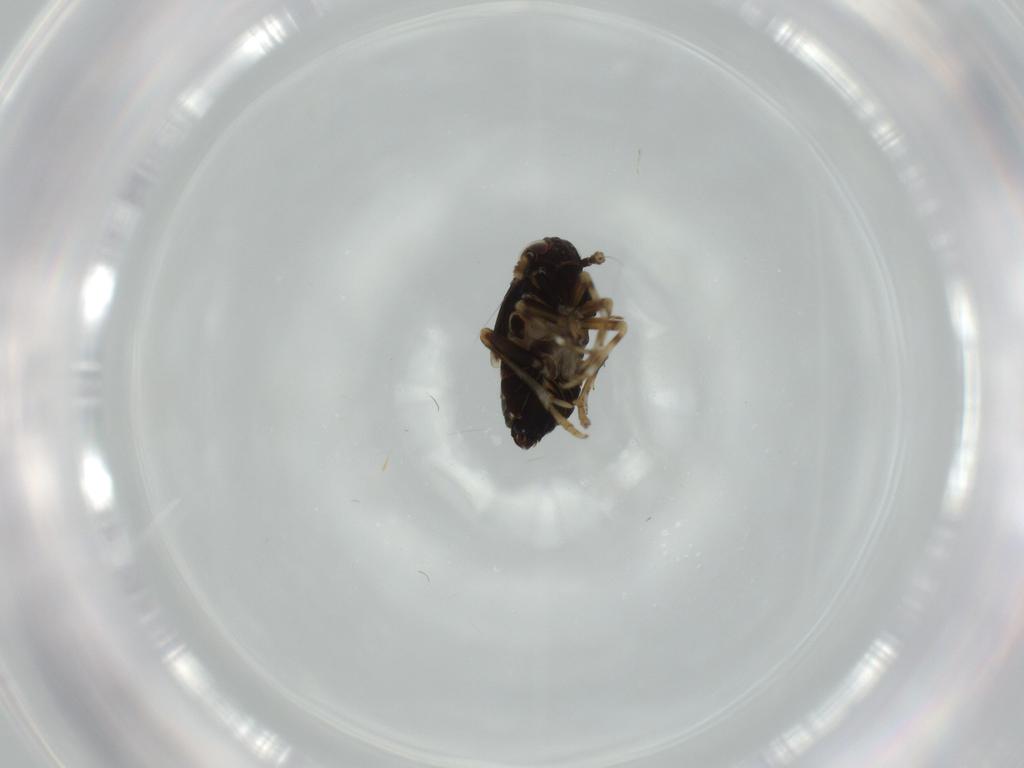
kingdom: Animalia
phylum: Arthropoda
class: Insecta
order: Hemiptera
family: Delphacidae
